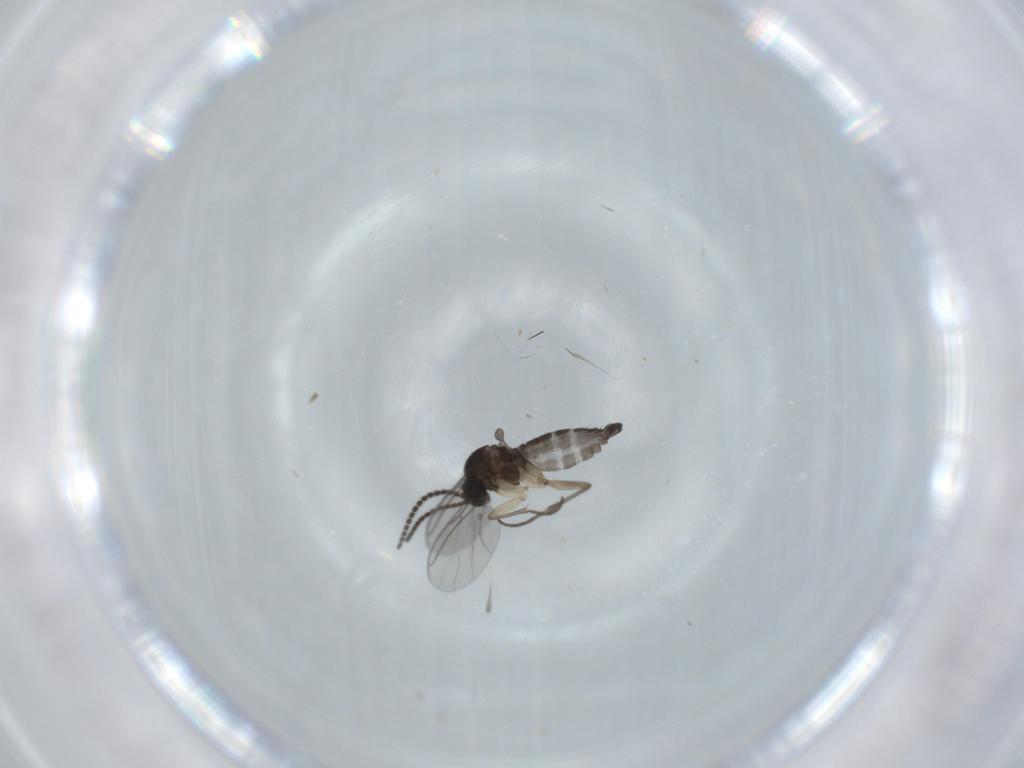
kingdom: Animalia
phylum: Arthropoda
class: Insecta
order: Diptera
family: Sciaridae
